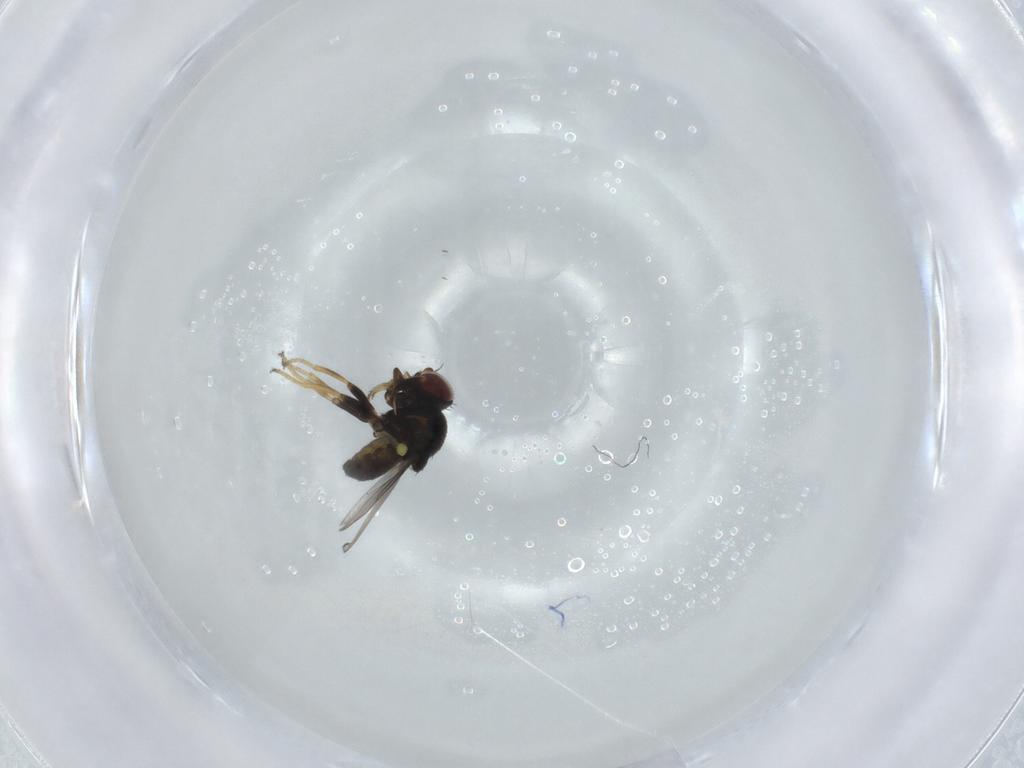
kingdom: Animalia
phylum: Arthropoda
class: Insecta
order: Diptera
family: Chloropidae
